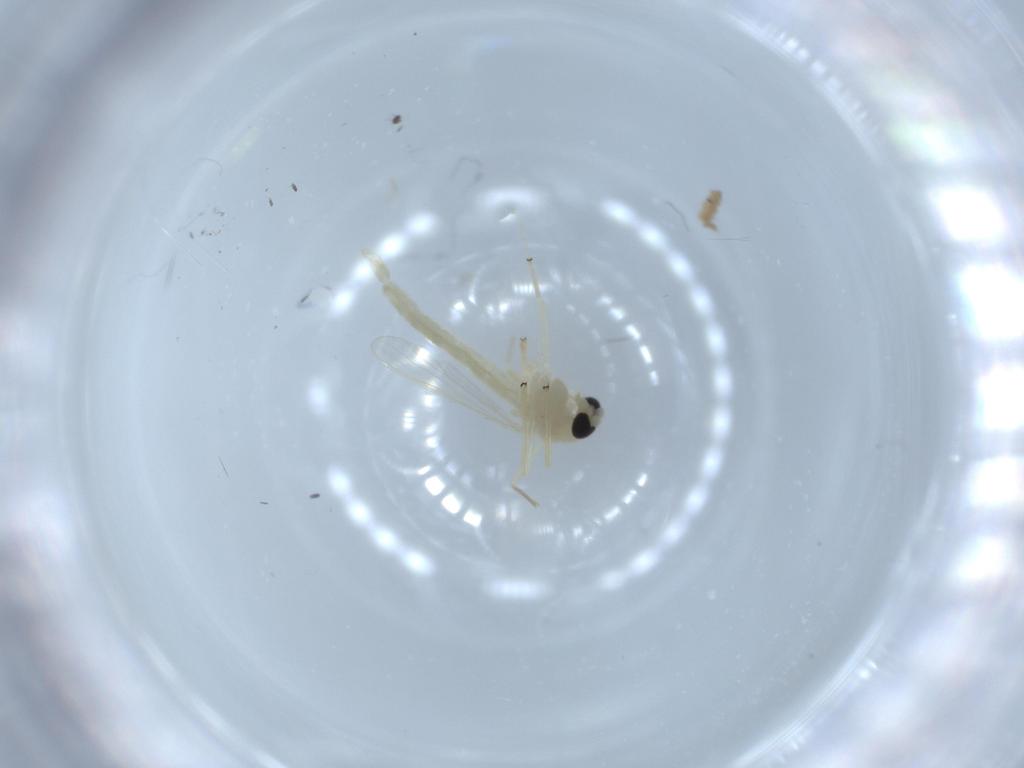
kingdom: Animalia
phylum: Arthropoda
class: Insecta
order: Diptera
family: Chironomidae
